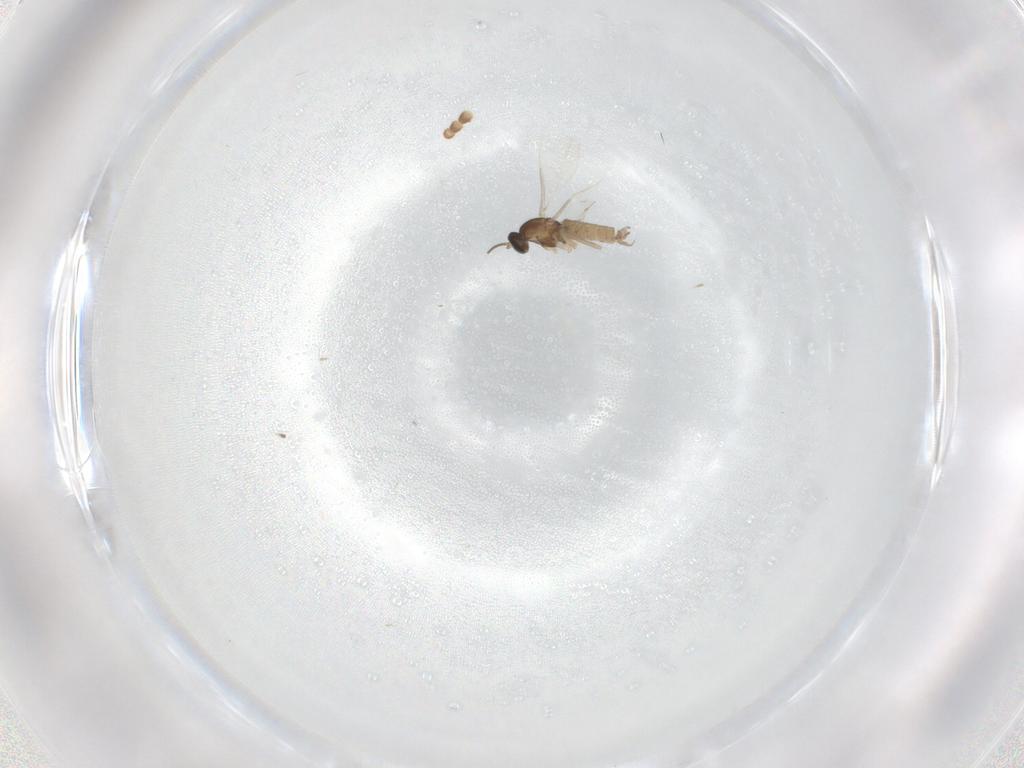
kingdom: Animalia
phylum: Arthropoda
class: Insecta
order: Diptera
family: Cecidomyiidae
